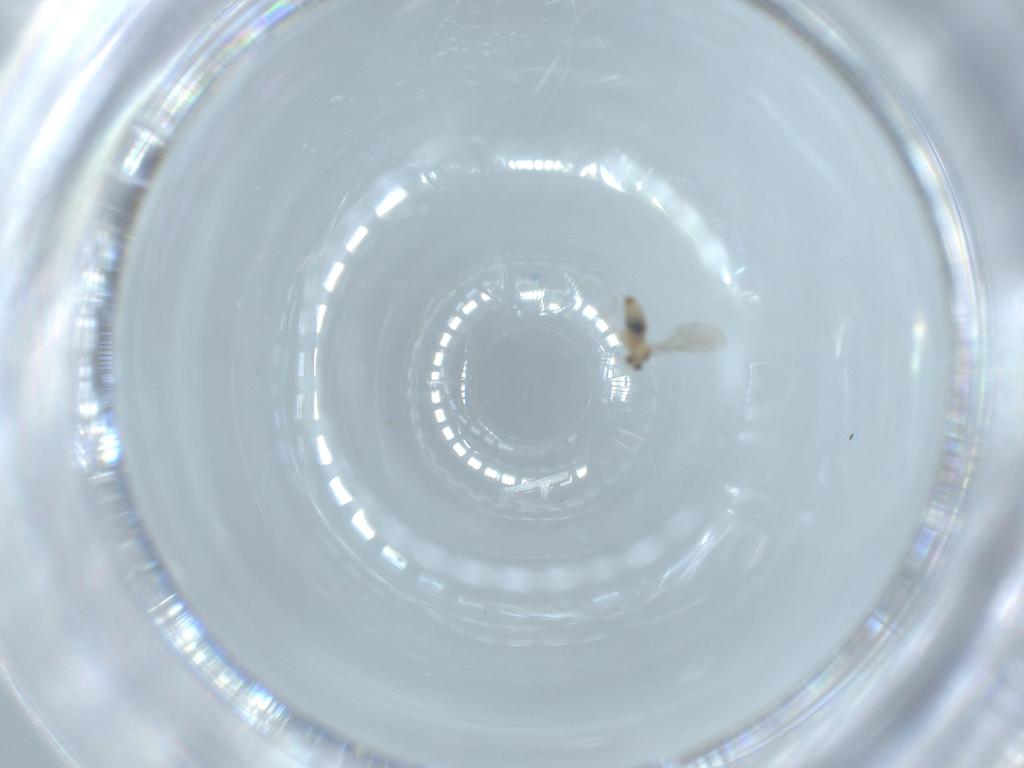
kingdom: Animalia
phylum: Arthropoda
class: Insecta
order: Diptera
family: Cecidomyiidae
